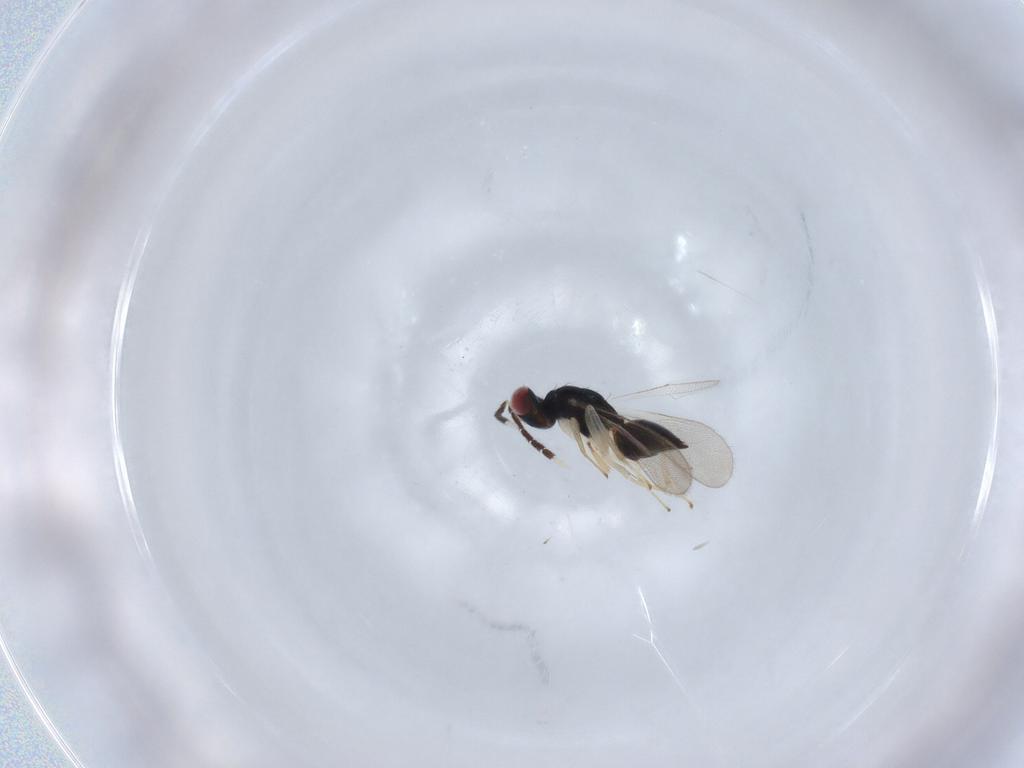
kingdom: Animalia
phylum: Arthropoda
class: Insecta
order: Hymenoptera
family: Eulophidae
